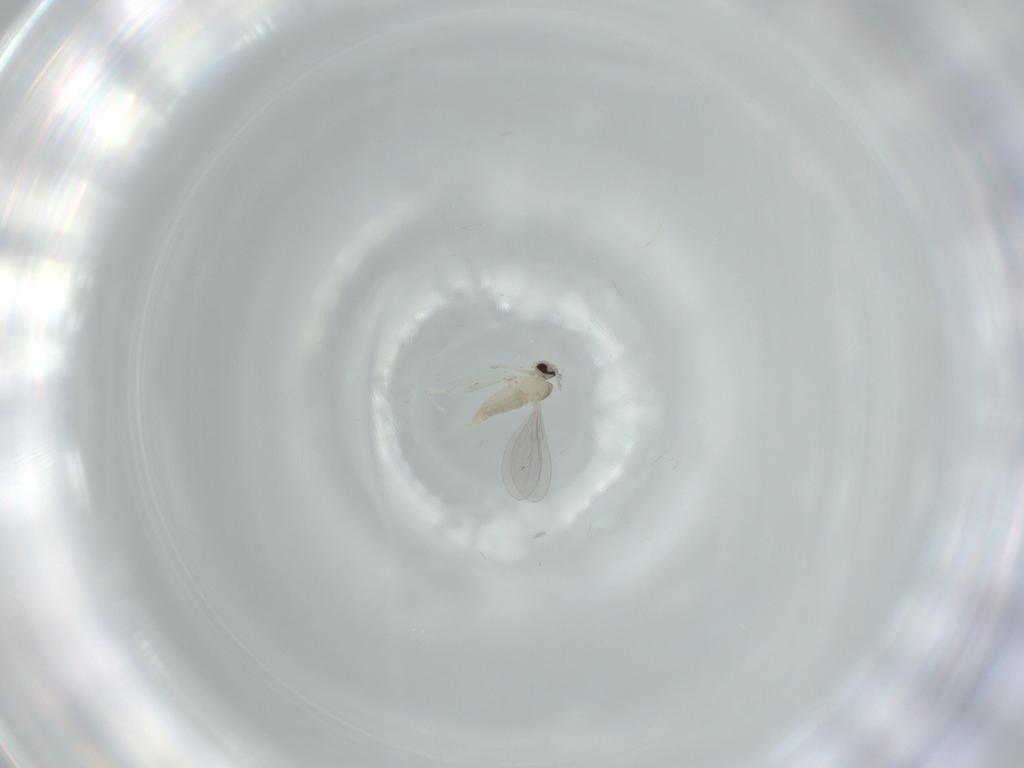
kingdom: Animalia
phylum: Arthropoda
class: Insecta
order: Diptera
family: Cecidomyiidae
